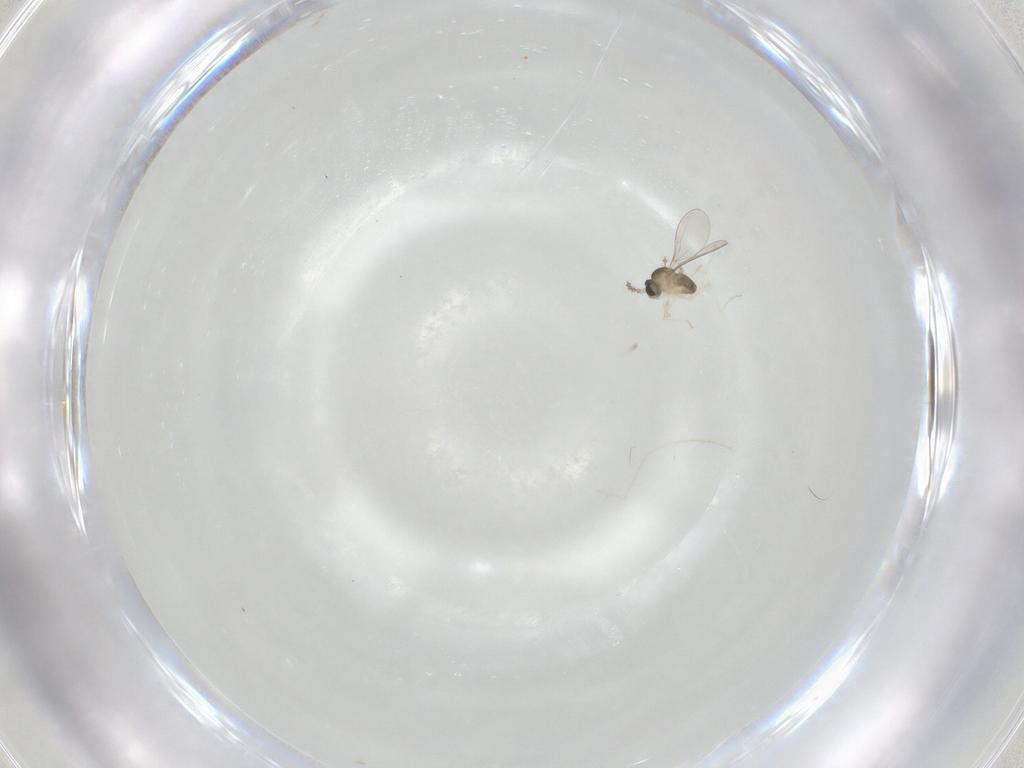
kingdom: Animalia
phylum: Arthropoda
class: Insecta
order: Diptera
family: Cecidomyiidae
